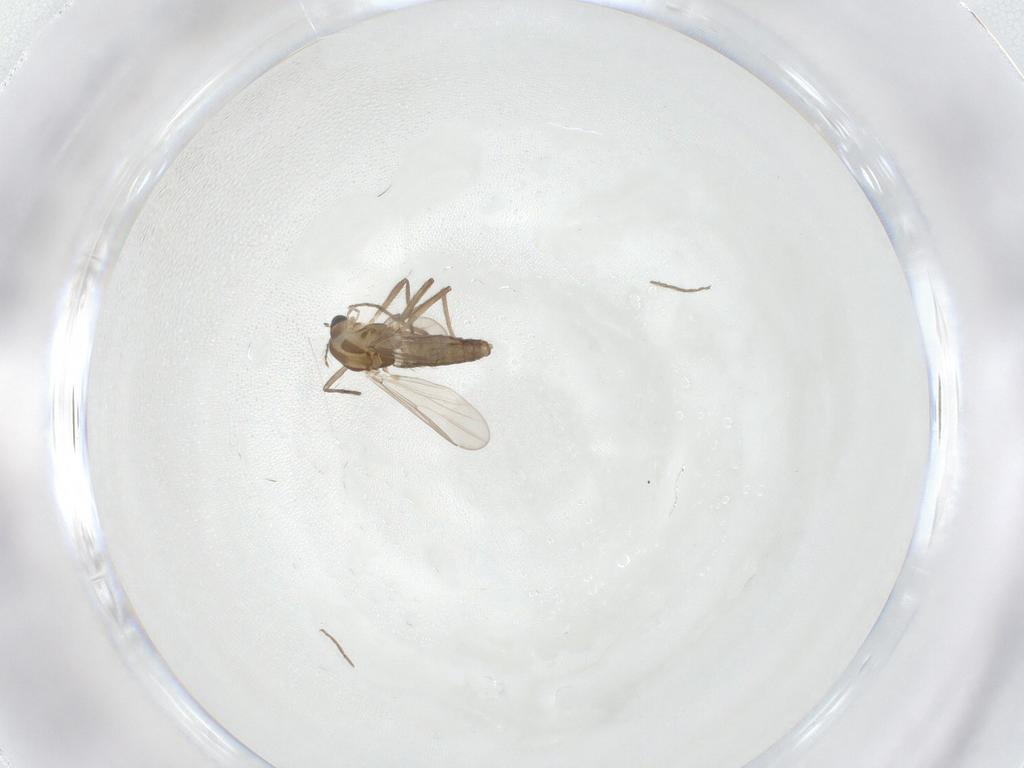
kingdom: Animalia
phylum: Arthropoda
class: Insecta
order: Diptera
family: Chironomidae
